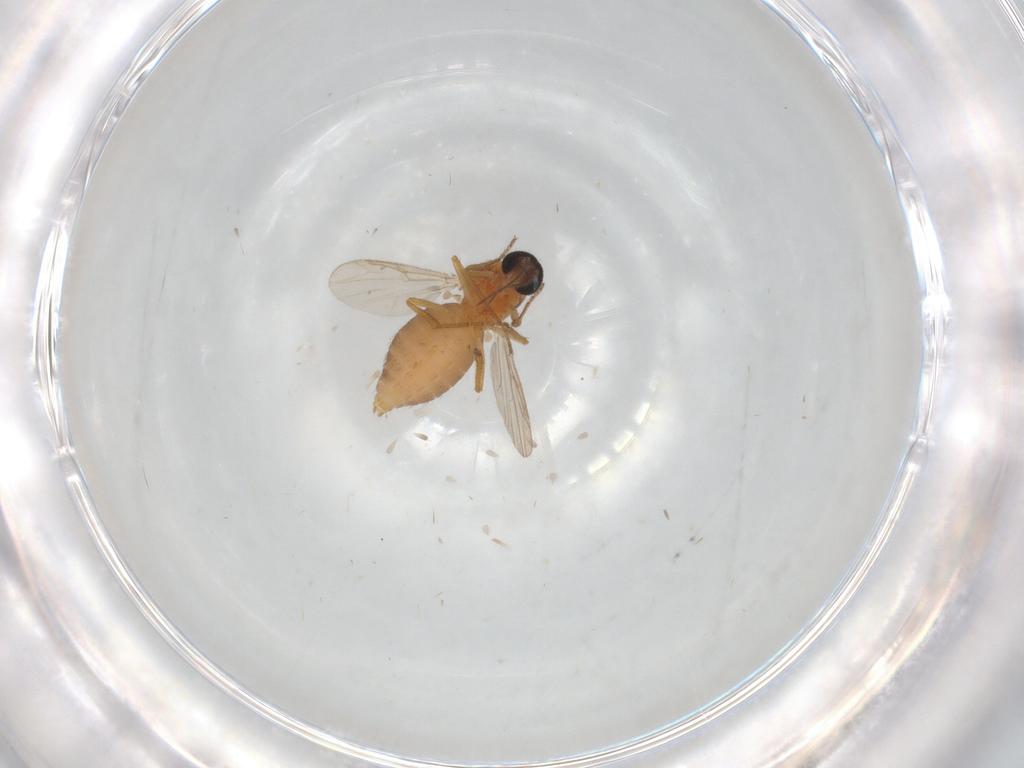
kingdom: Animalia
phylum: Arthropoda
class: Insecta
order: Diptera
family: Ceratopogonidae
